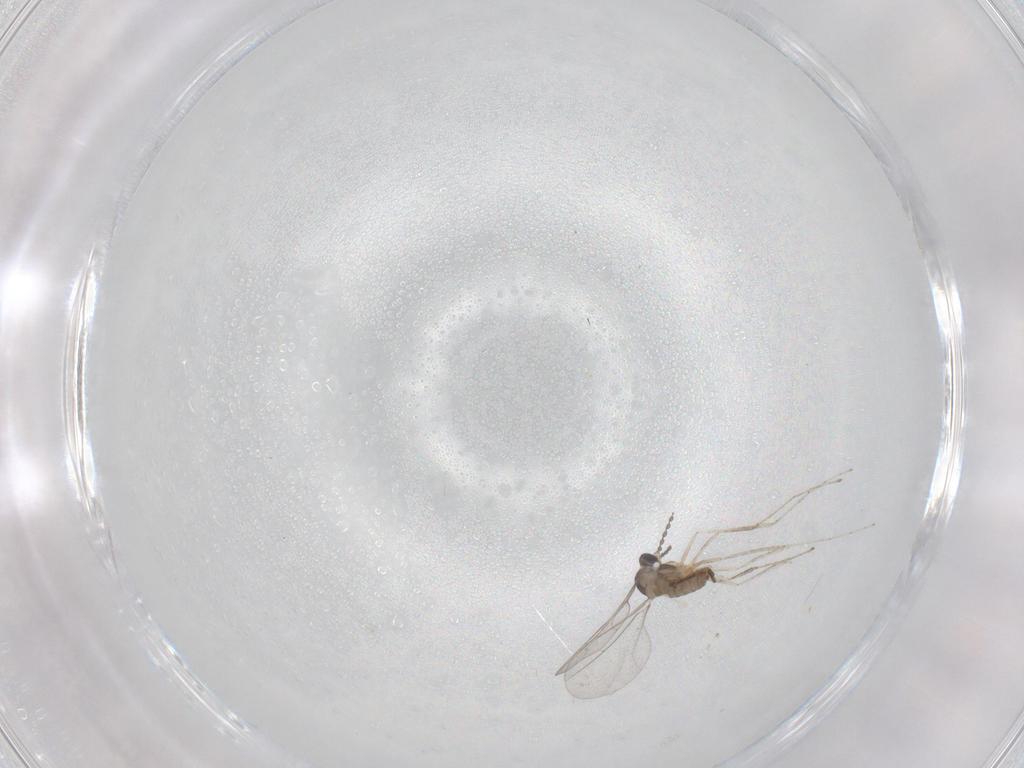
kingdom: Animalia
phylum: Arthropoda
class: Insecta
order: Diptera
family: Cecidomyiidae
